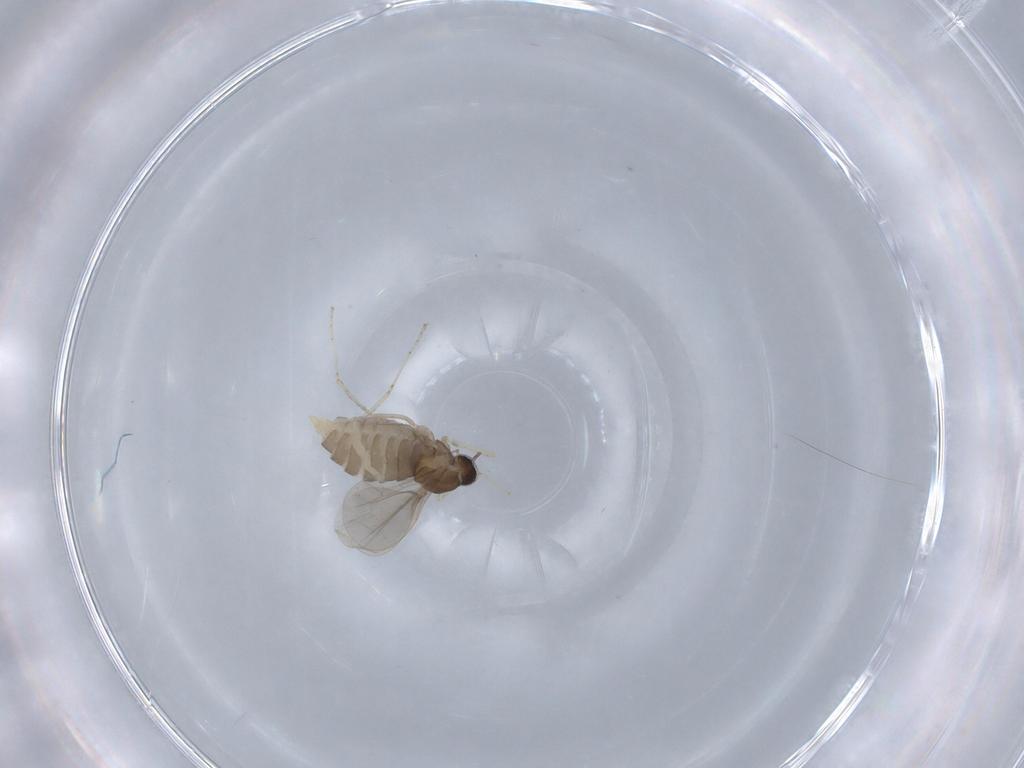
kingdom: Animalia
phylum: Arthropoda
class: Insecta
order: Diptera
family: Cecidomyiidae
